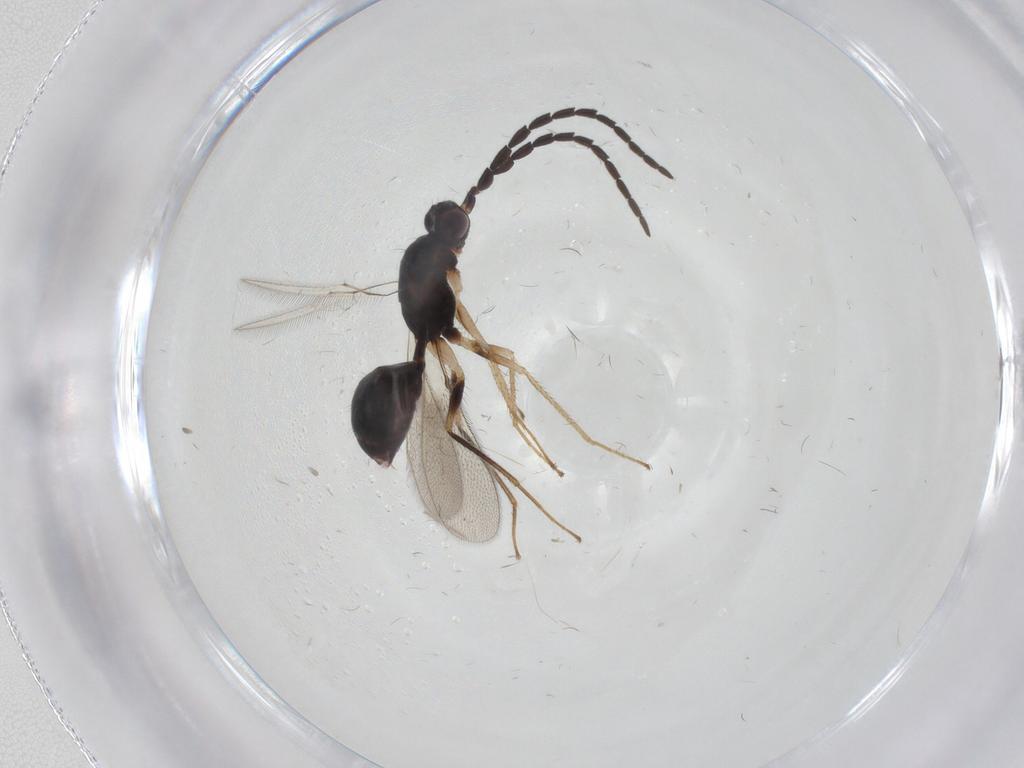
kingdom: Animalia
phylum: Arthropoda
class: Insecta
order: Hymenoptera
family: Mymaridae
